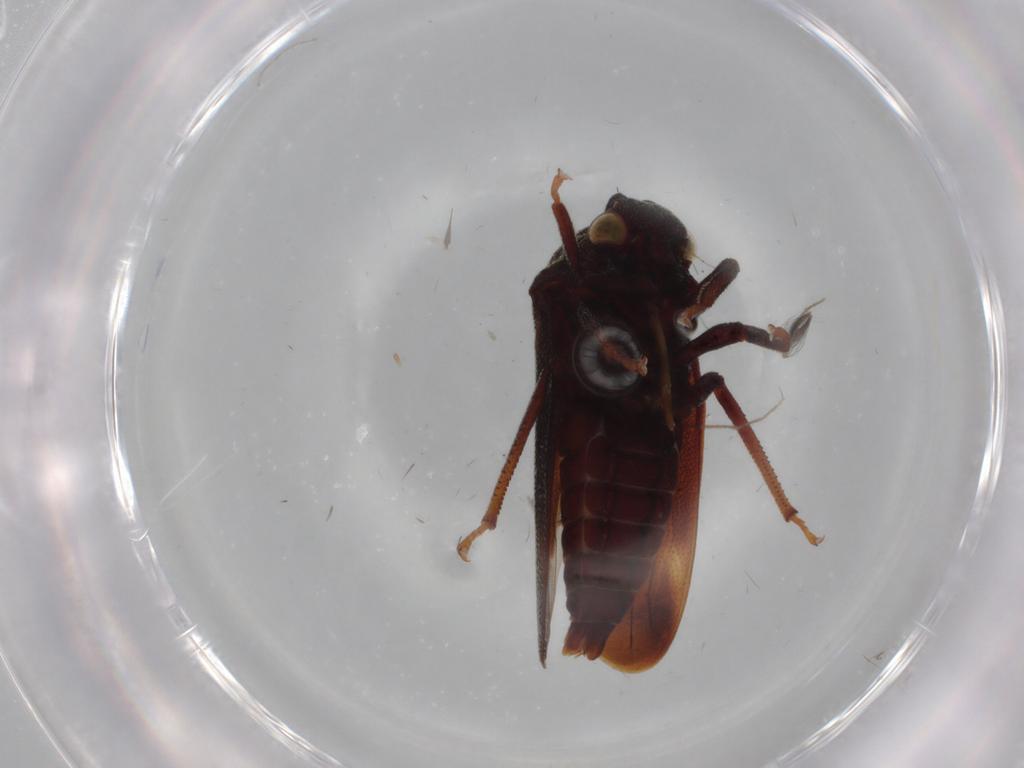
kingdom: Animalia
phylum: Arthropoda
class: Insecta
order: Hemiptera
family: Aetalionidae
